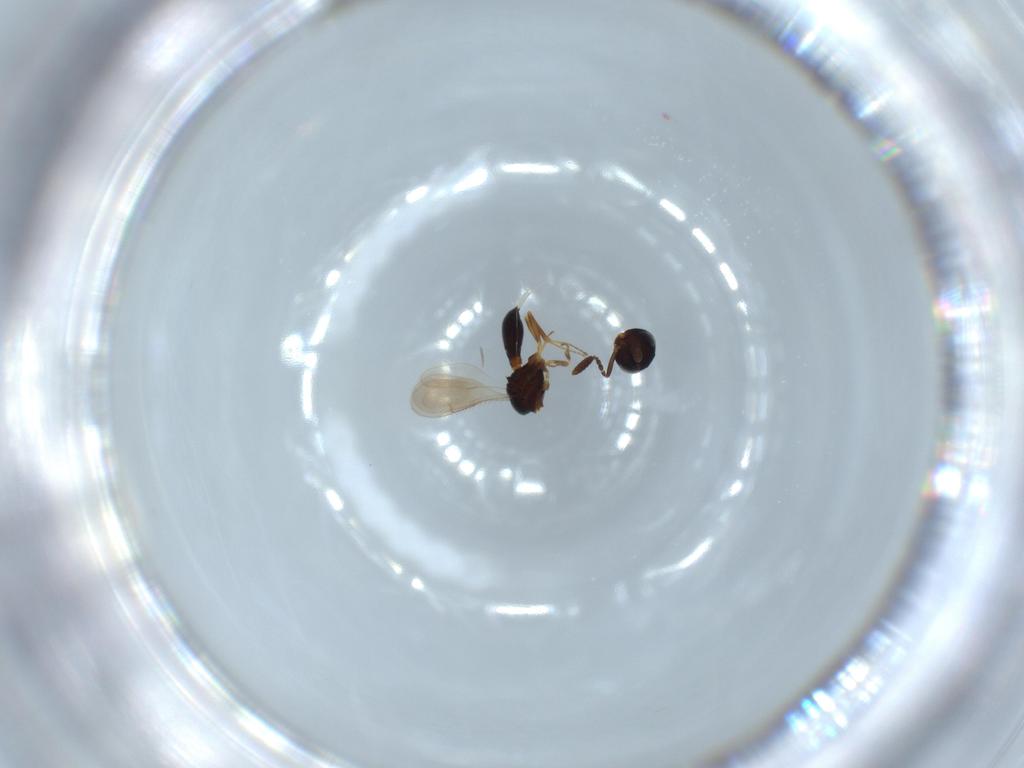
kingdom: Animalia
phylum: Arthropoda
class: Insecta
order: Hymenoptera
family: Scelionidae
